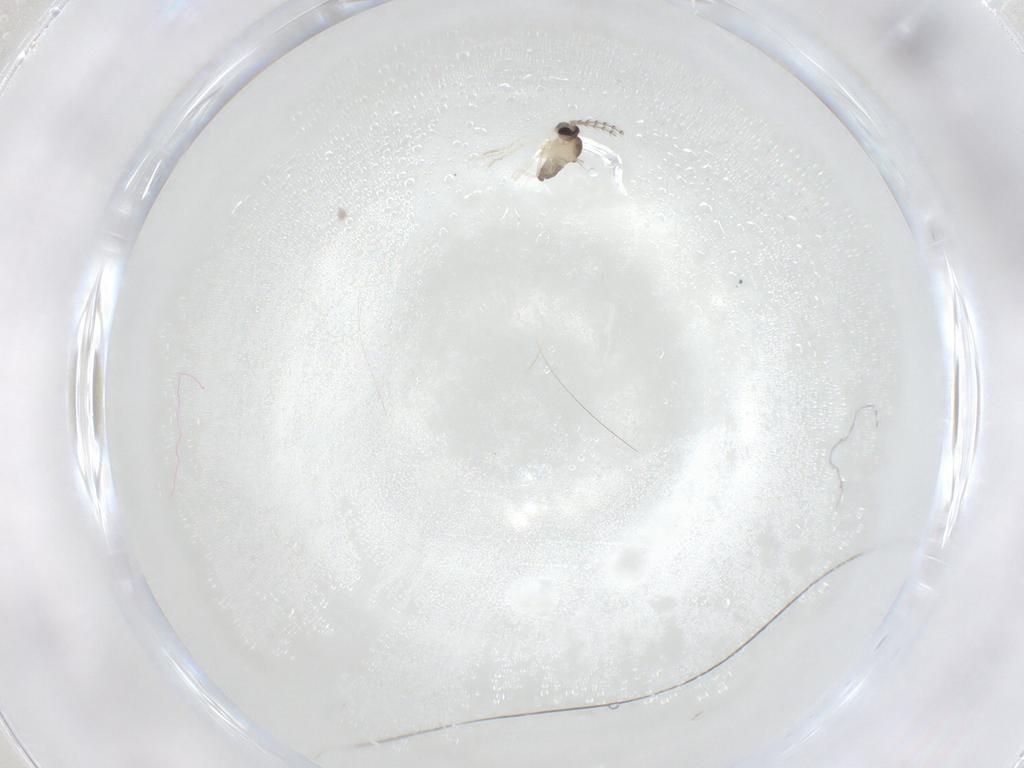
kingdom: Animalia
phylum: Arthropoda
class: Insecta
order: Diptera
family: Cecidomyiidae
